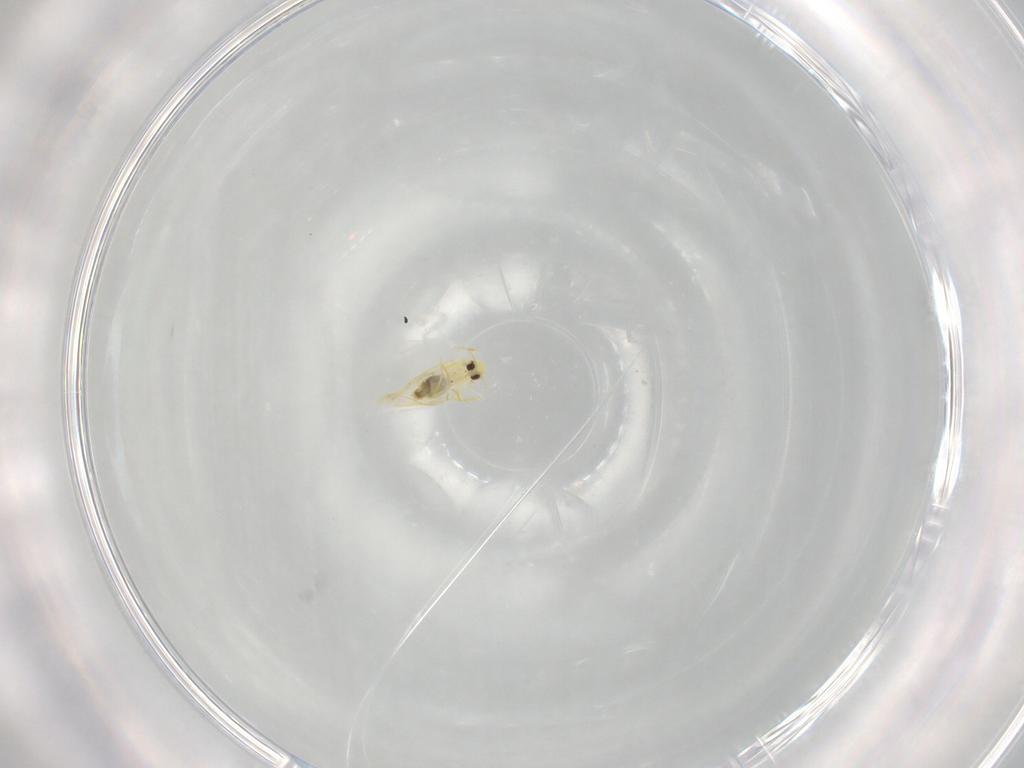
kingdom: Animalia
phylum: Arthropoda
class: Insecta
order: Hemiptera
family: Aleyrodidae
